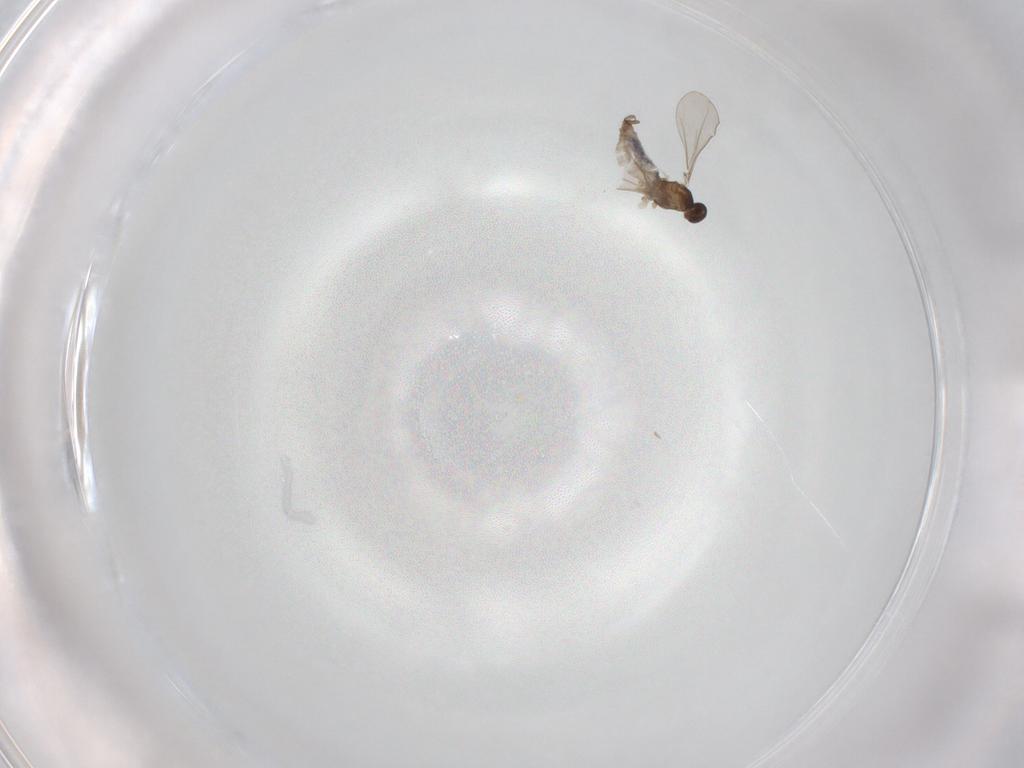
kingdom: Animalia
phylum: Arthropoda
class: Insecta
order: Diptera
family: Cecidomyiidae
